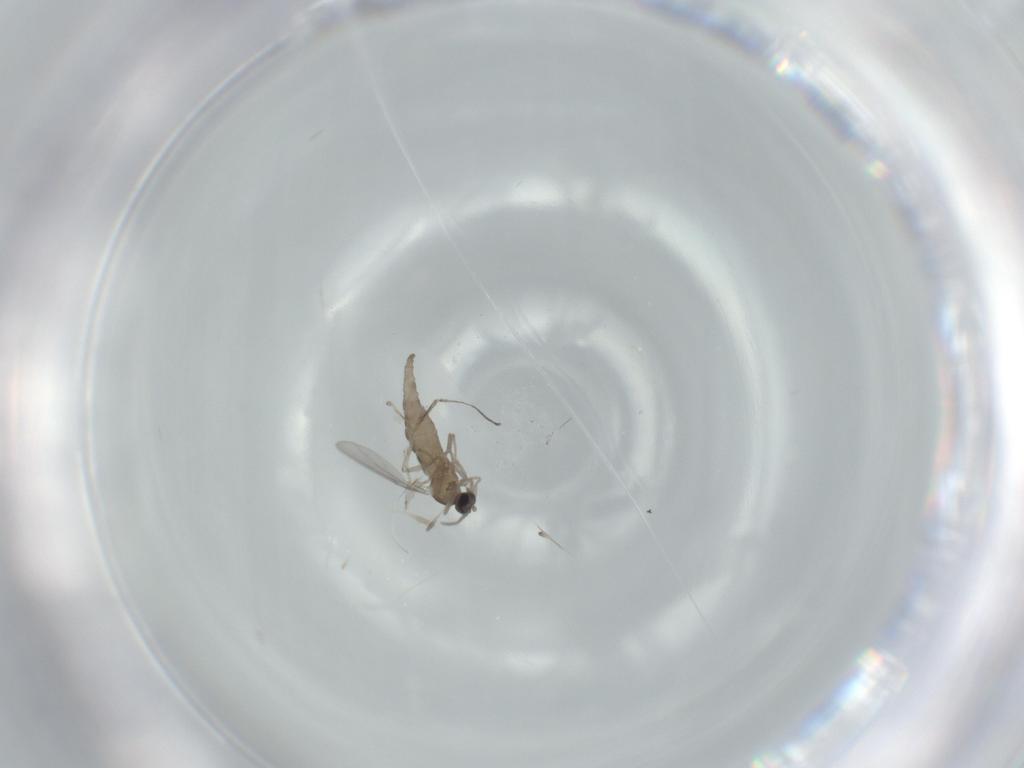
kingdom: Animalia
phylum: Arthropoda
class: Insecta
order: Diptera
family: Cecidomyiidae
